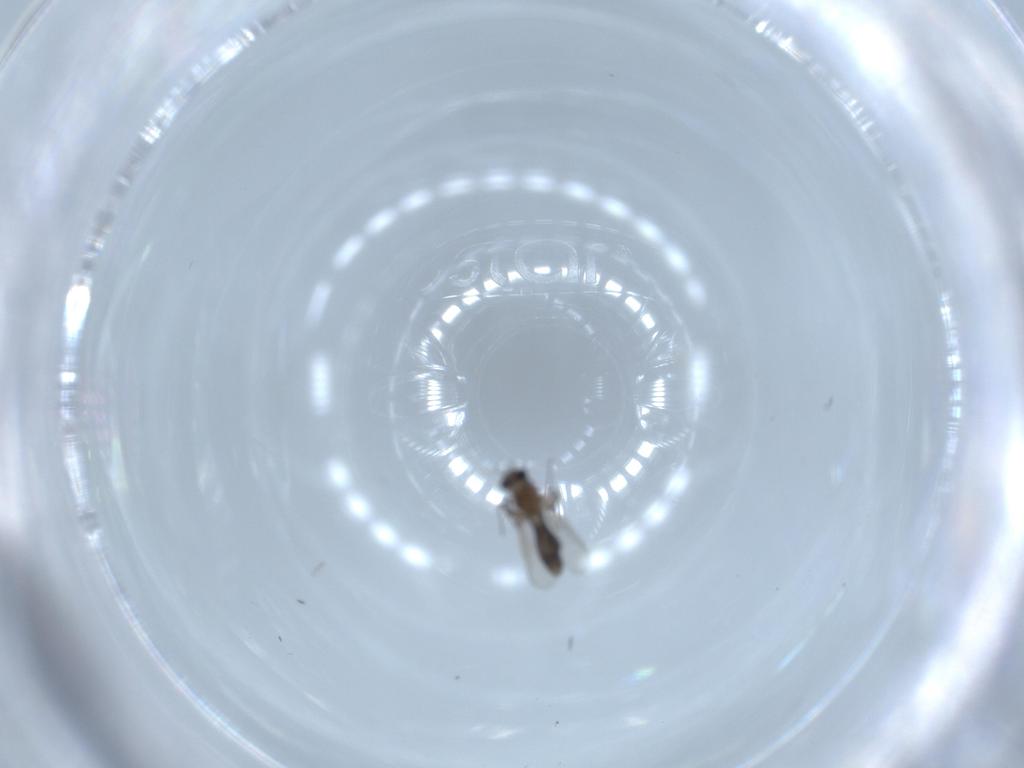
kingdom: Animalia
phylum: Arthropoda
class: Insecta
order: Diptera
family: Chironomidae
